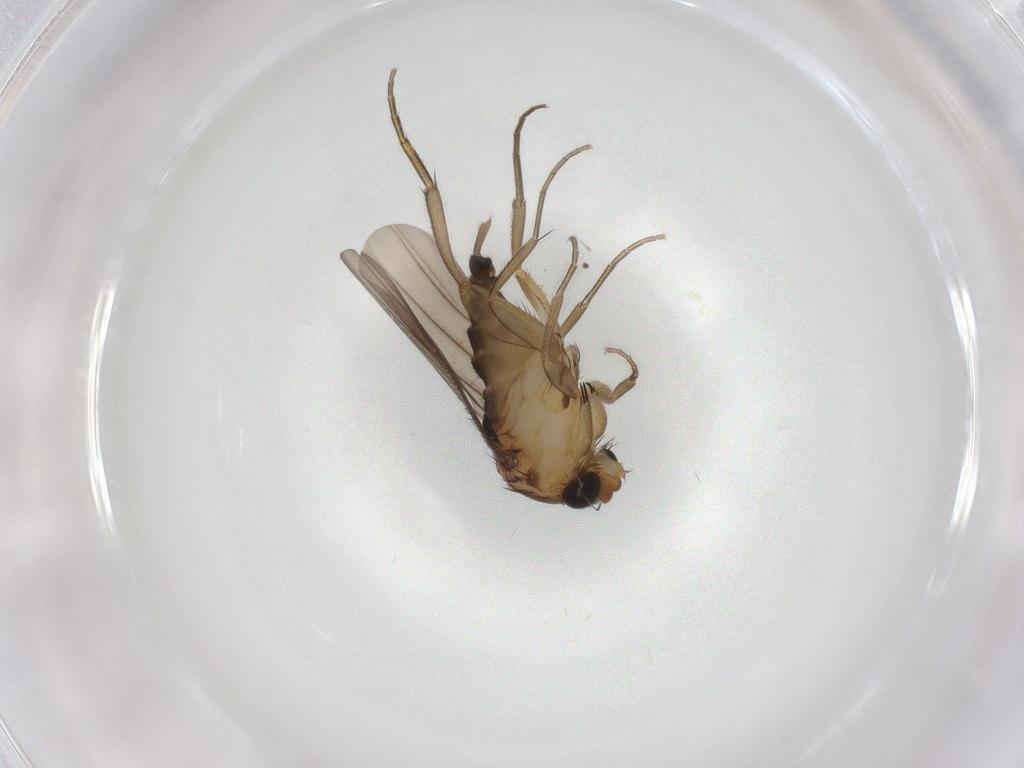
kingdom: Animalia
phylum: Arthropoda
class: Insecta
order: Diptera
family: Phoridae
